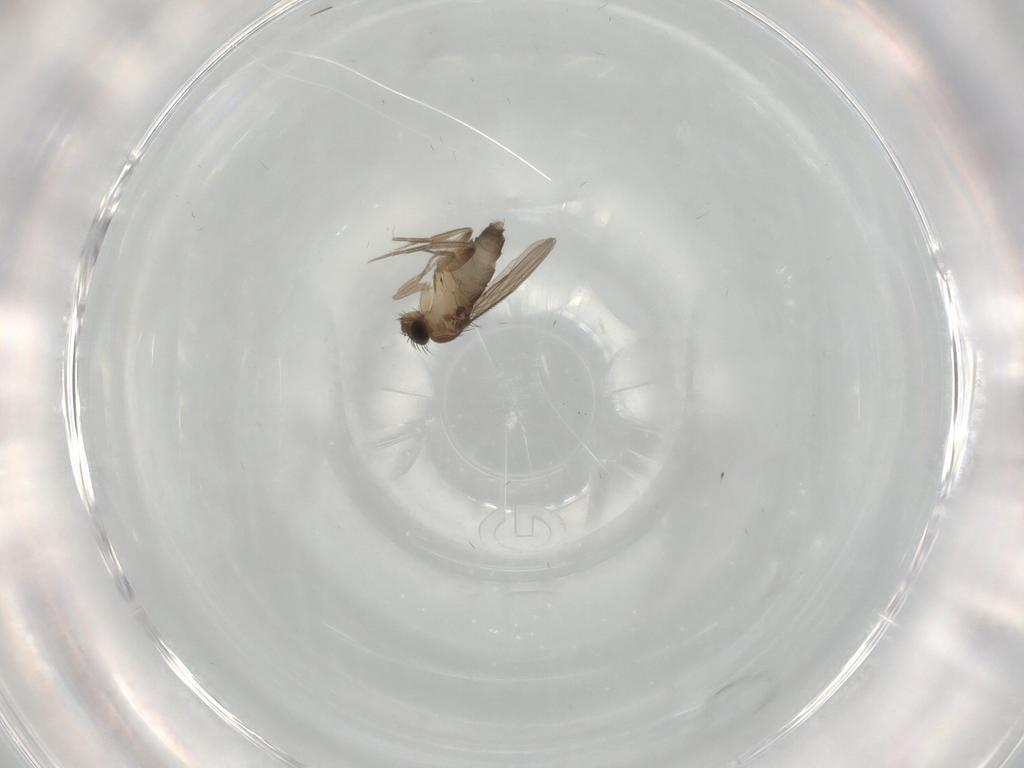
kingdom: Animalia
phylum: Arthropoda
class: Insecta
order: Diptera
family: Phoridae
